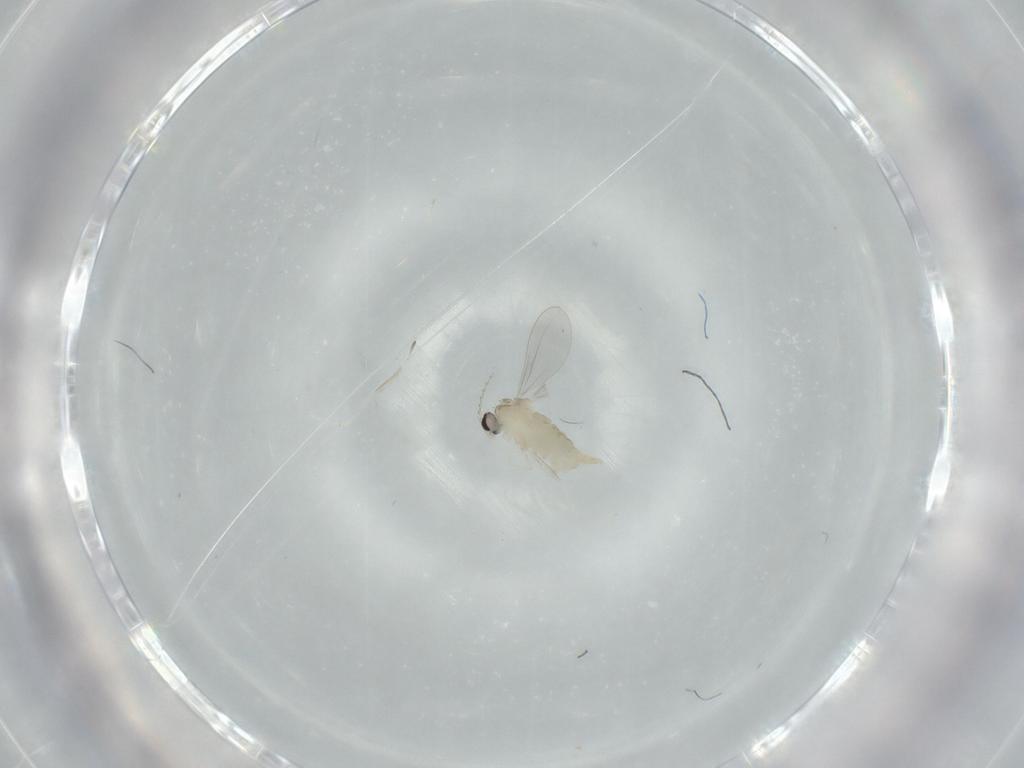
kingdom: Animalia
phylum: Arthropoda
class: Insecta
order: Diptera
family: Cecidomyiidae
